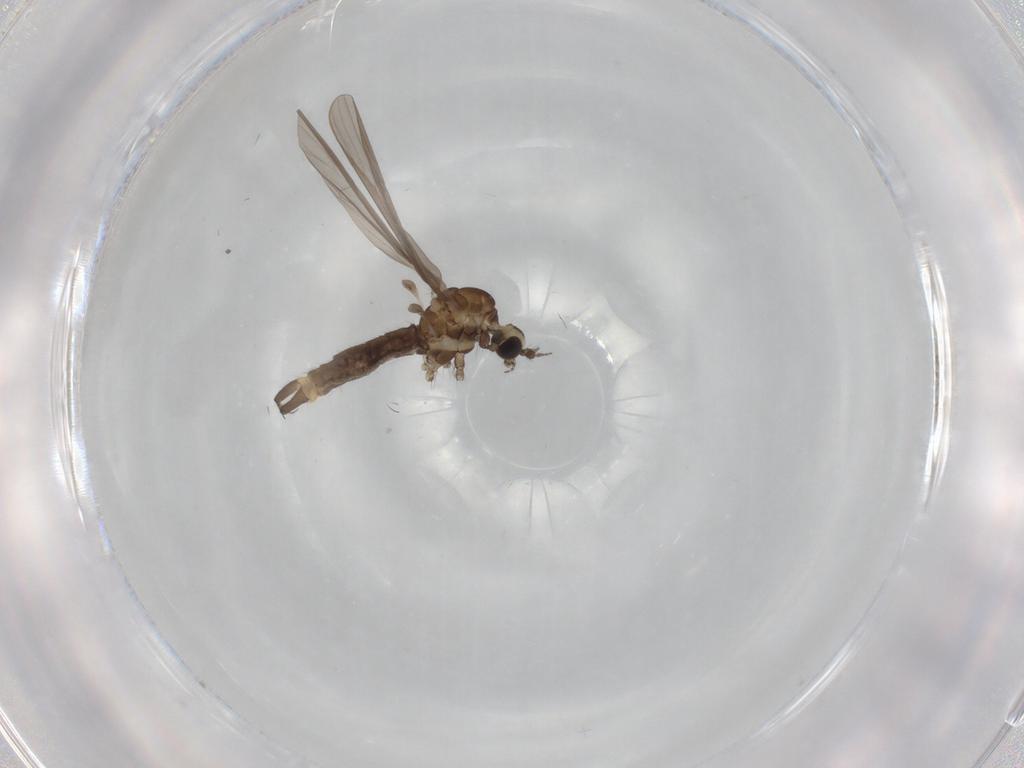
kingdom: Animalia
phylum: Arthropoda
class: Insecta
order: Diptera
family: Limoniidae
